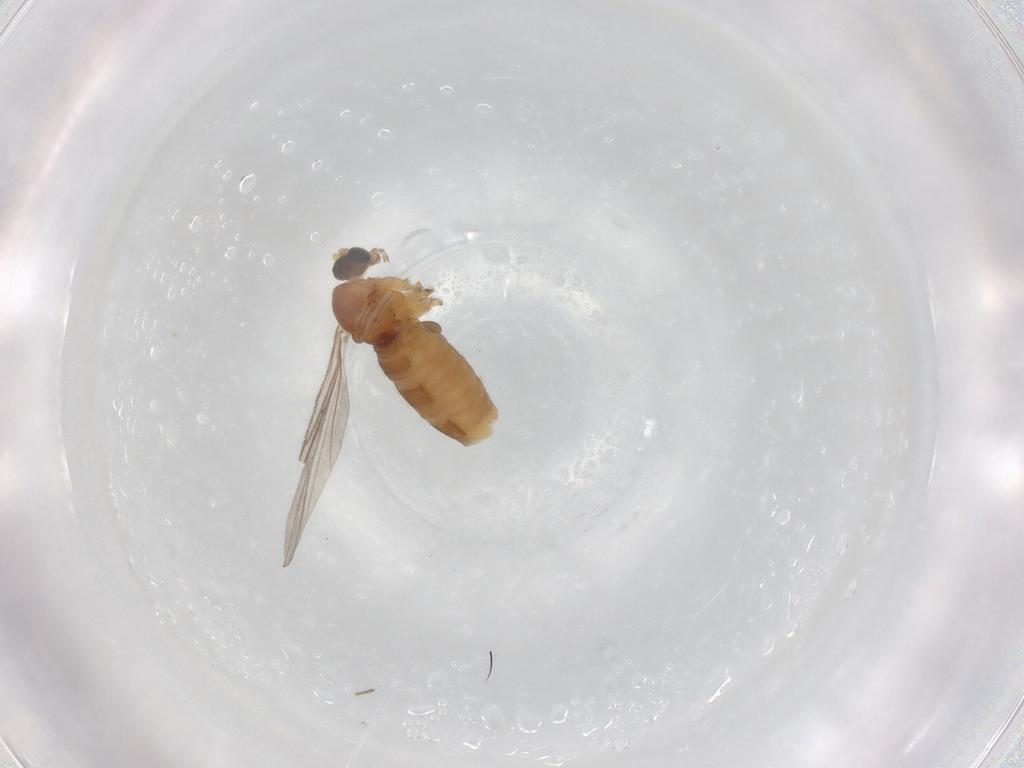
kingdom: Animalia
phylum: Arthropoda
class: Insecta
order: Diptera
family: Sciaridae
